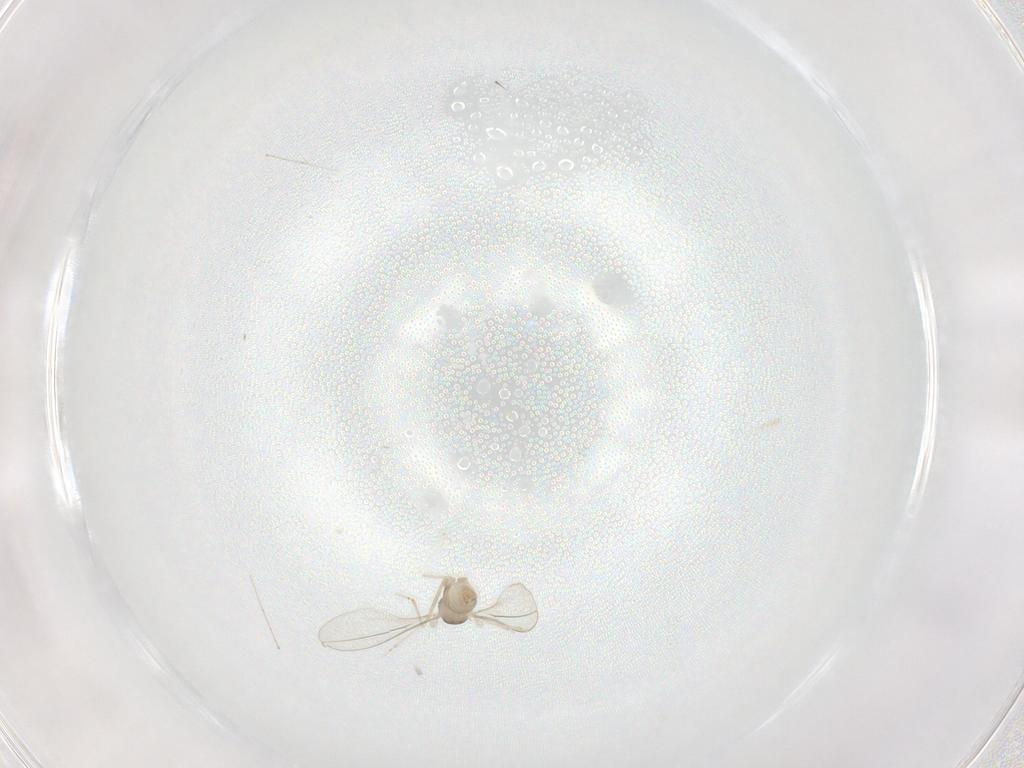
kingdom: Animalia
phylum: Arthropoda
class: Insecta
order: Diptera
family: Cecidomyiidae
